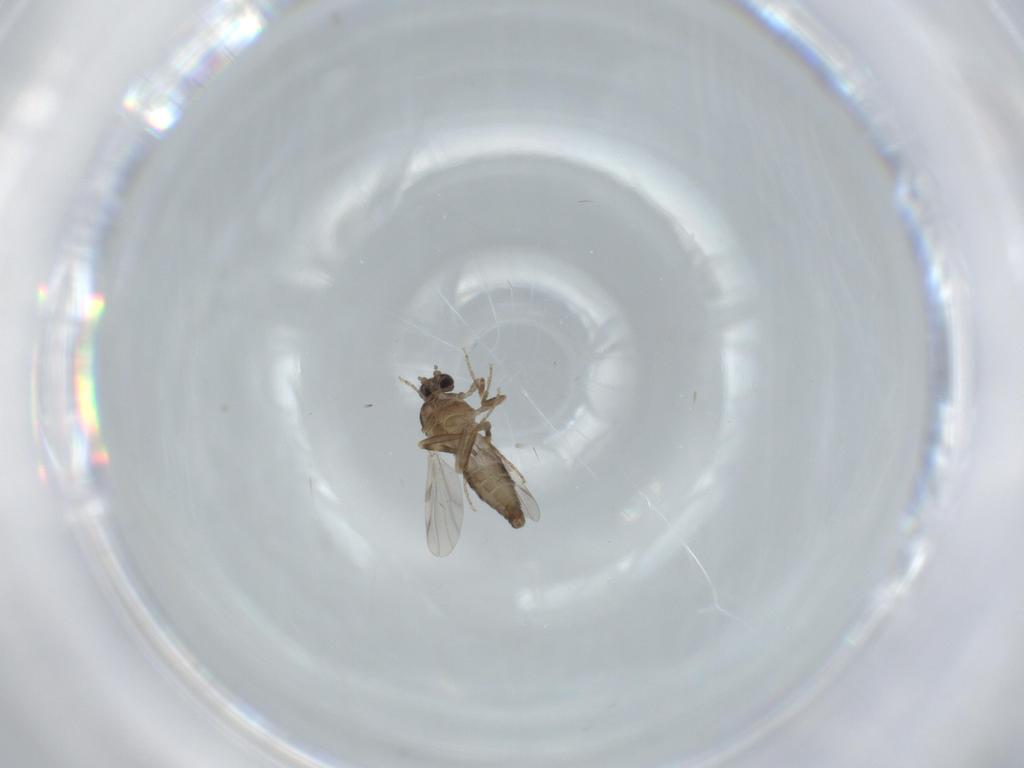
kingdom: Animalia
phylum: Arthropoda
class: Insecta
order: Diptera
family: Ceratopogonidae
